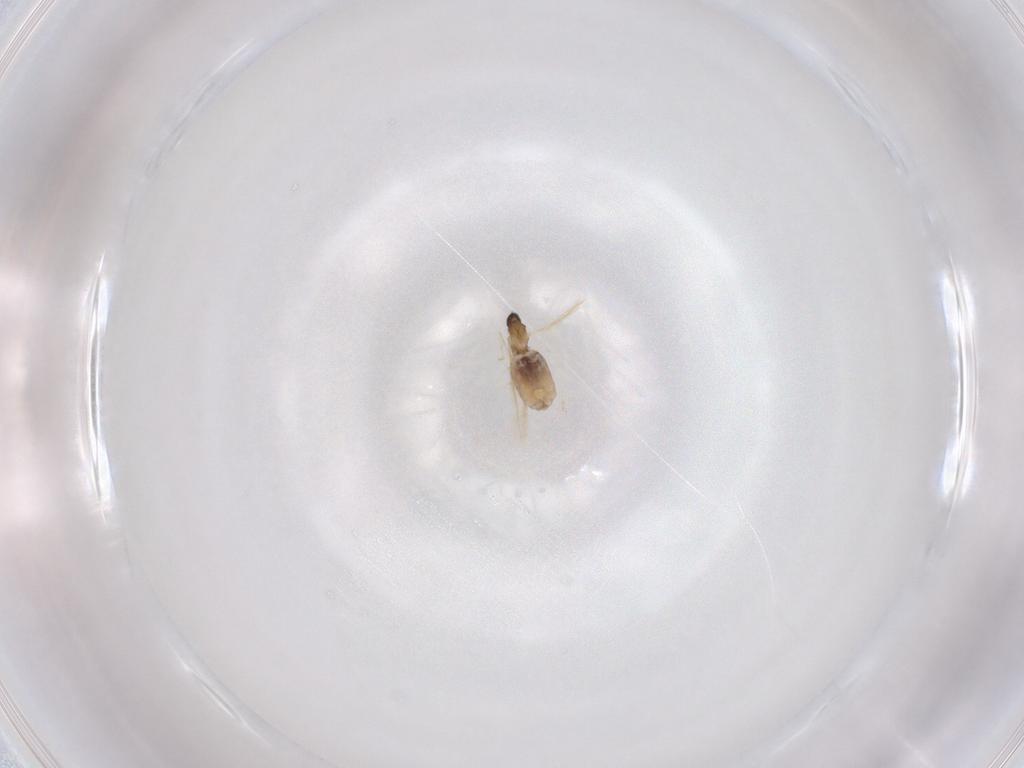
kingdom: Animalia
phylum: Arthropoda
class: Insecta
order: Diptera
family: Cecidomyiidae
